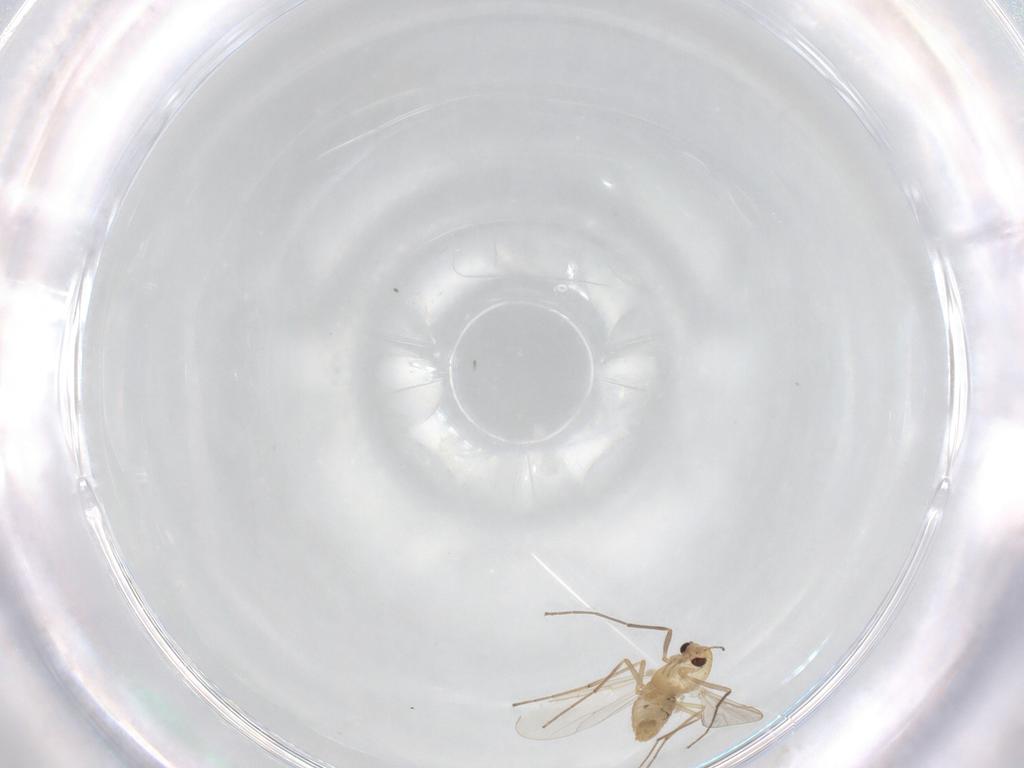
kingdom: Animalia
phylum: Arthropoda
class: Insecta
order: Diptera
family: Chironomidae
